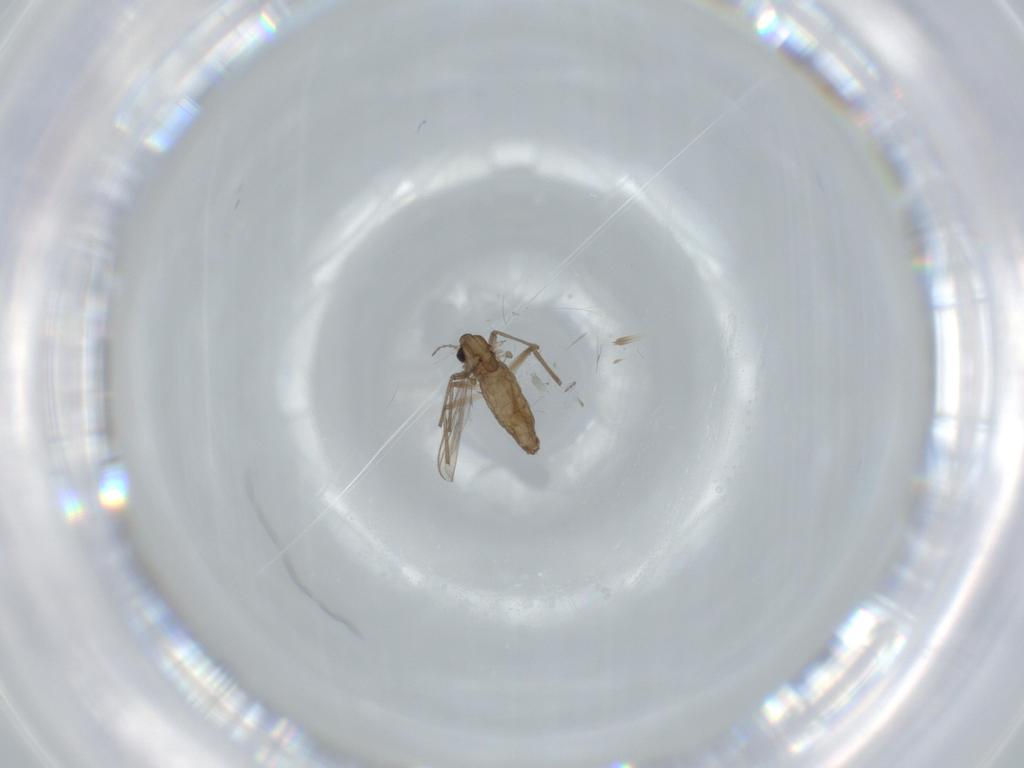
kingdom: Animalia
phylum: Arthropoda
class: Insecta
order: Diptera
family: Chironomidae
